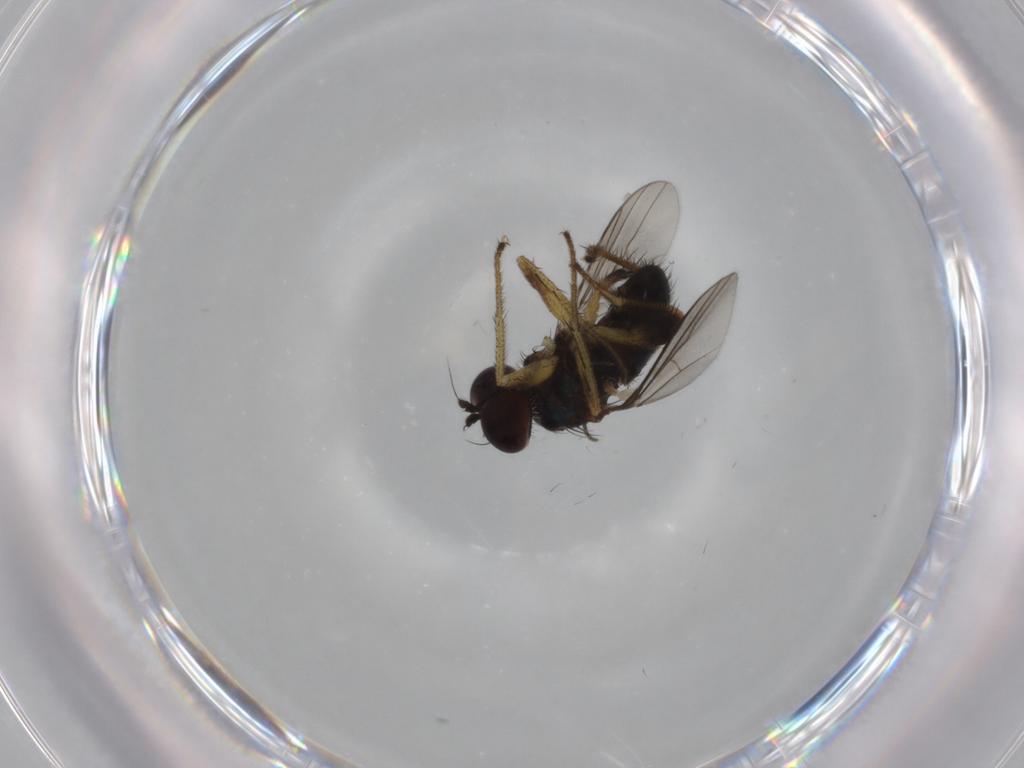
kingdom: Animalia
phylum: Arthropoda
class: Insecta
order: Diptera
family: Dolichopodidae
